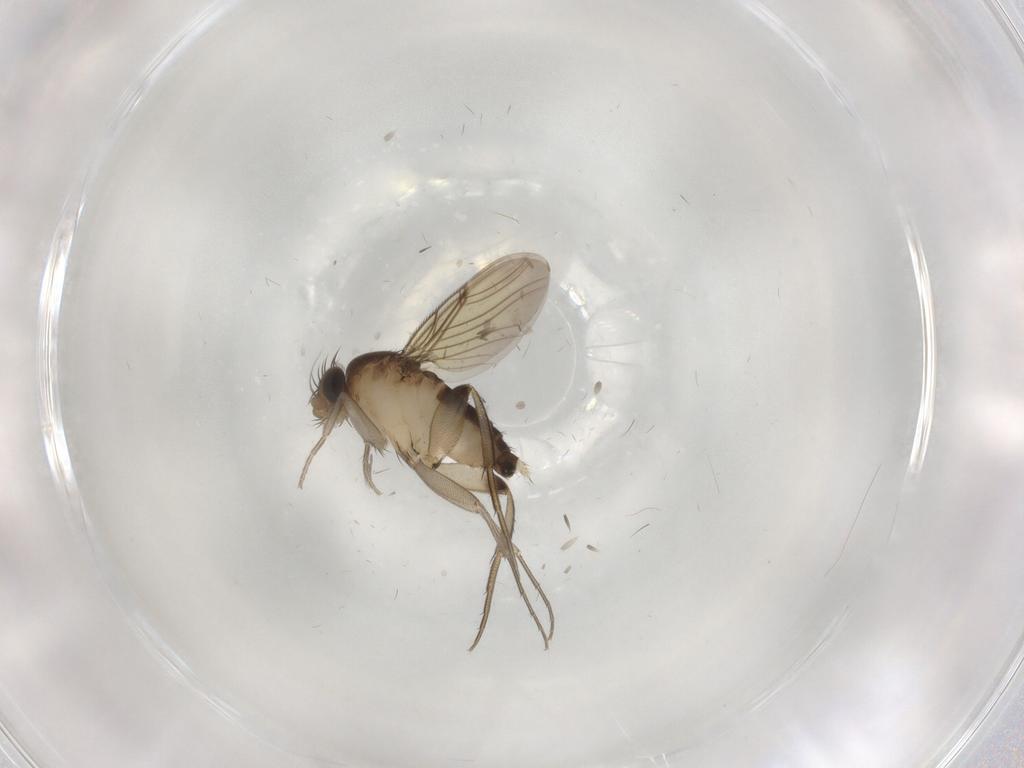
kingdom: Animalia
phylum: Arthropoda
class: Insecta
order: Diptera
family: Phoridae
